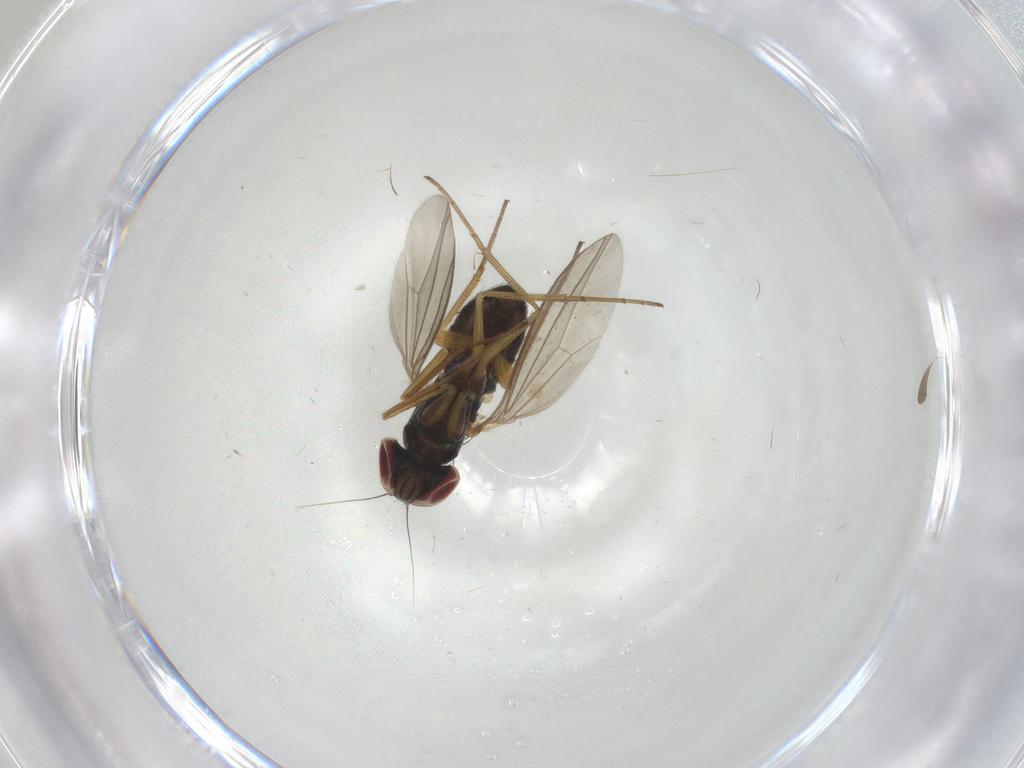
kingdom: Animalia
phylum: Arthropoda
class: Insecta
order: Diptera
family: Dolichopodidae
